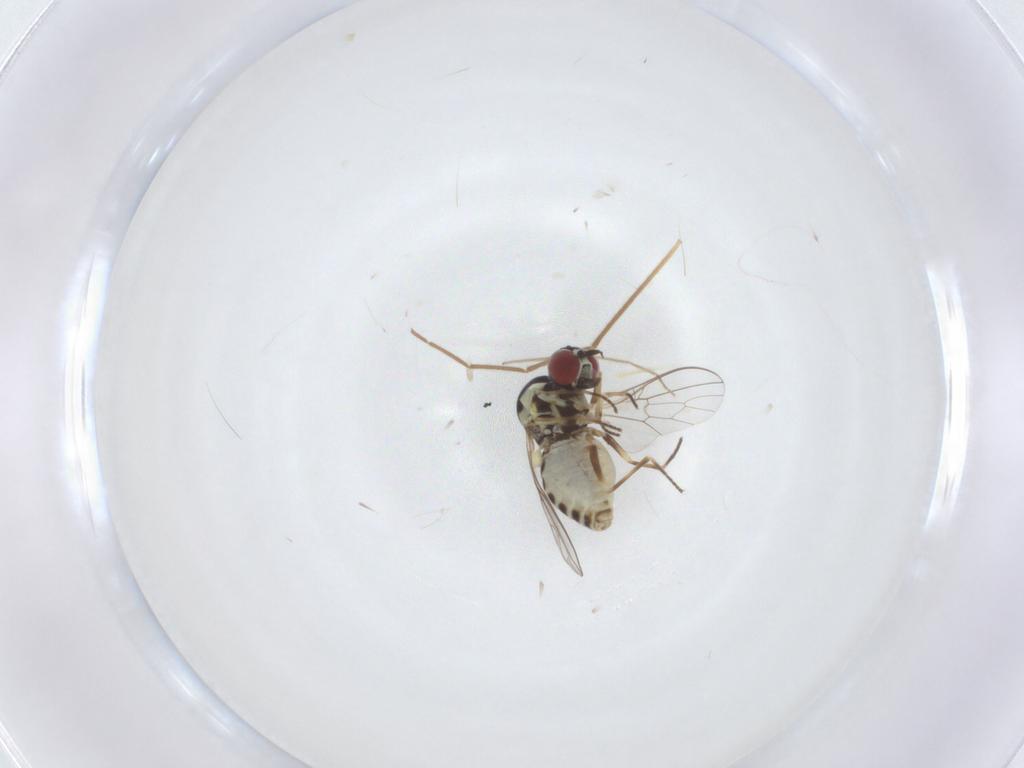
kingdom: Animalia
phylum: Arthropoda
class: Insecta
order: Diptera
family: Bombyliidae
